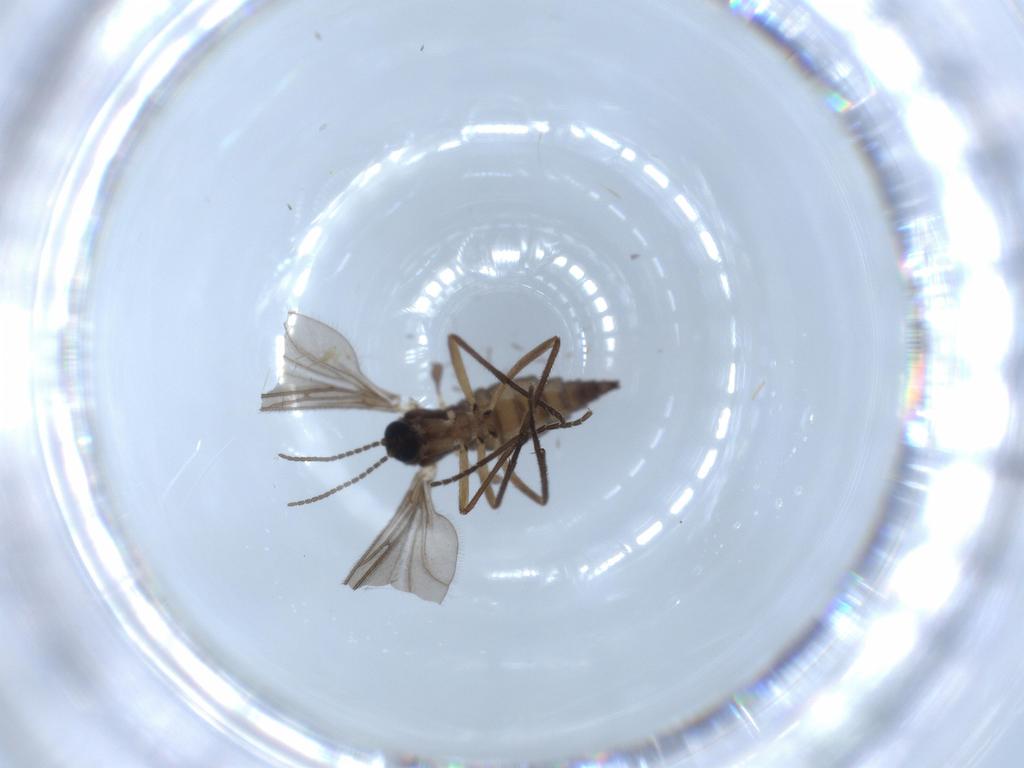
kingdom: Animalia
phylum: Arthropoda
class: Insecta
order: Diptera
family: Sciaridae
